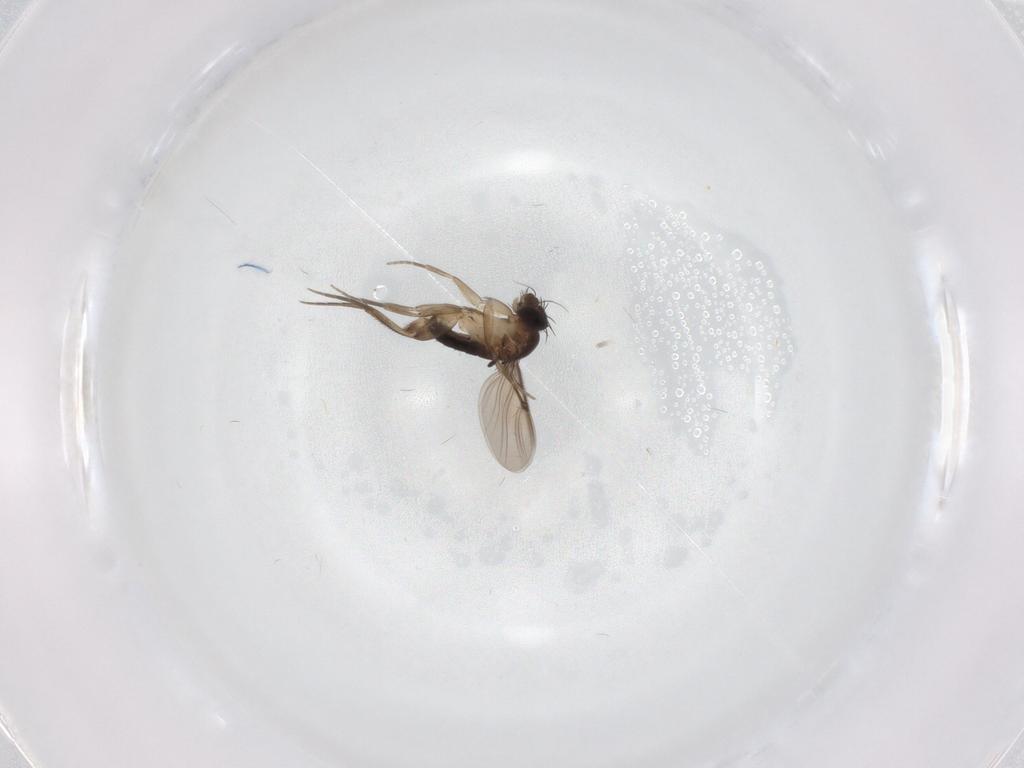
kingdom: Animalia
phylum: Arthropoda
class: Insecta
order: Diptera
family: Phoridae
